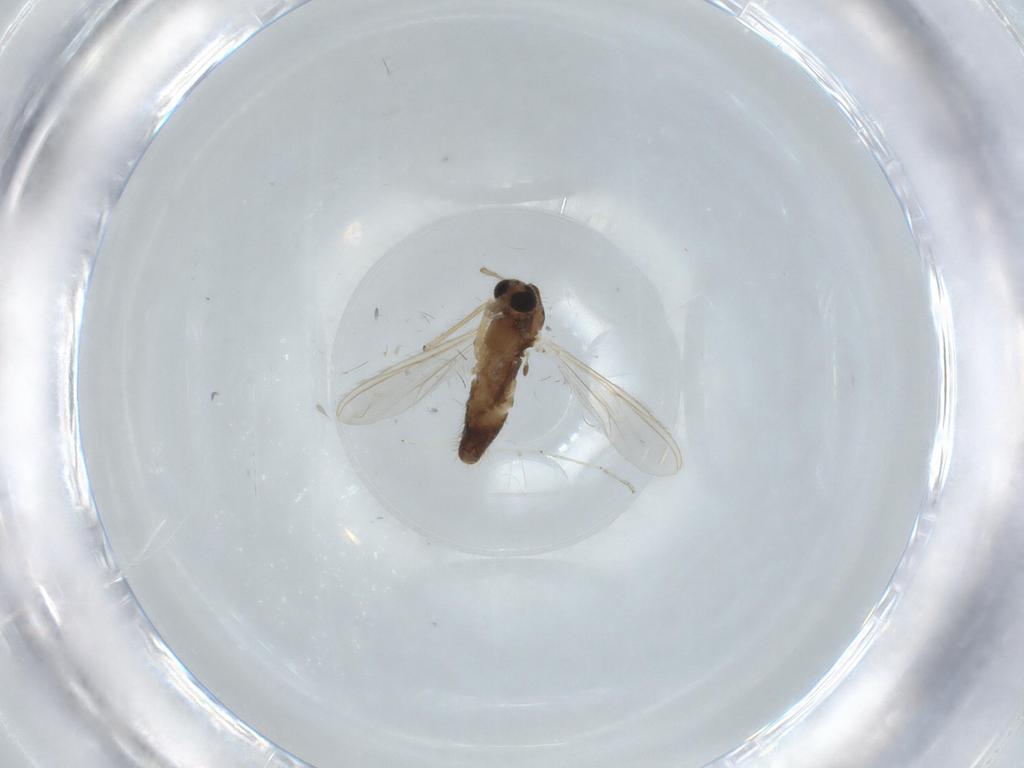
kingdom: Animalia
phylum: Arthropoda
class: Insecta
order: Diptera
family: Chironomidae
